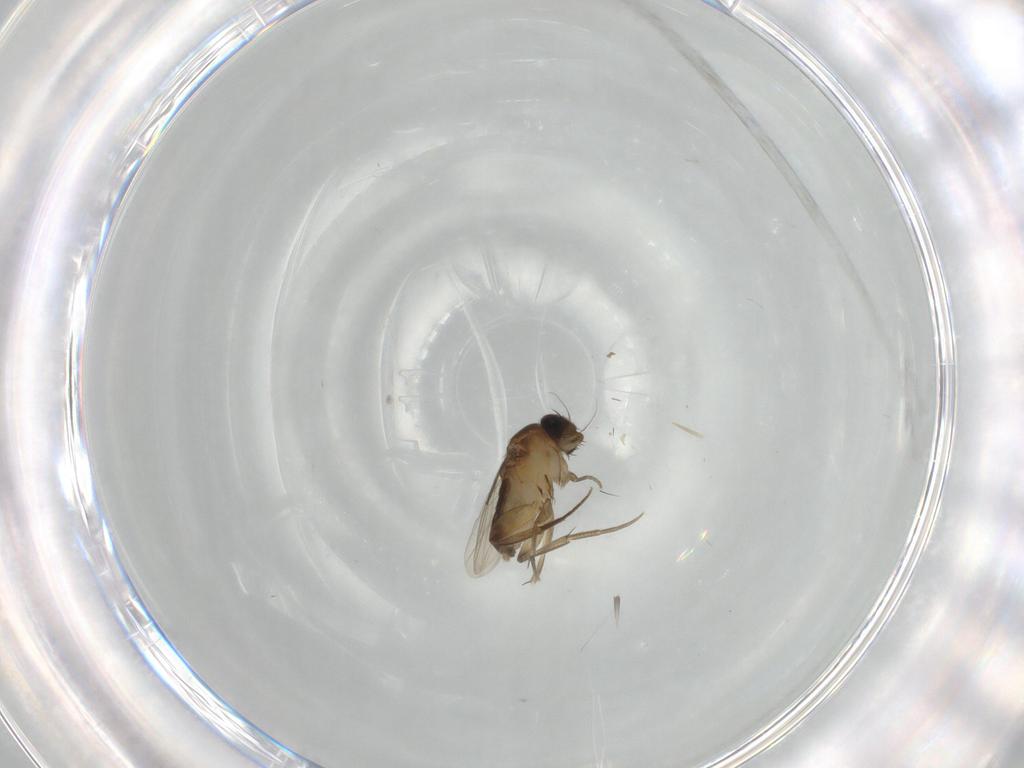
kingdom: Animalia
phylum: Arthropoda
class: Insecta
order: Diptera
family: Phoridae
